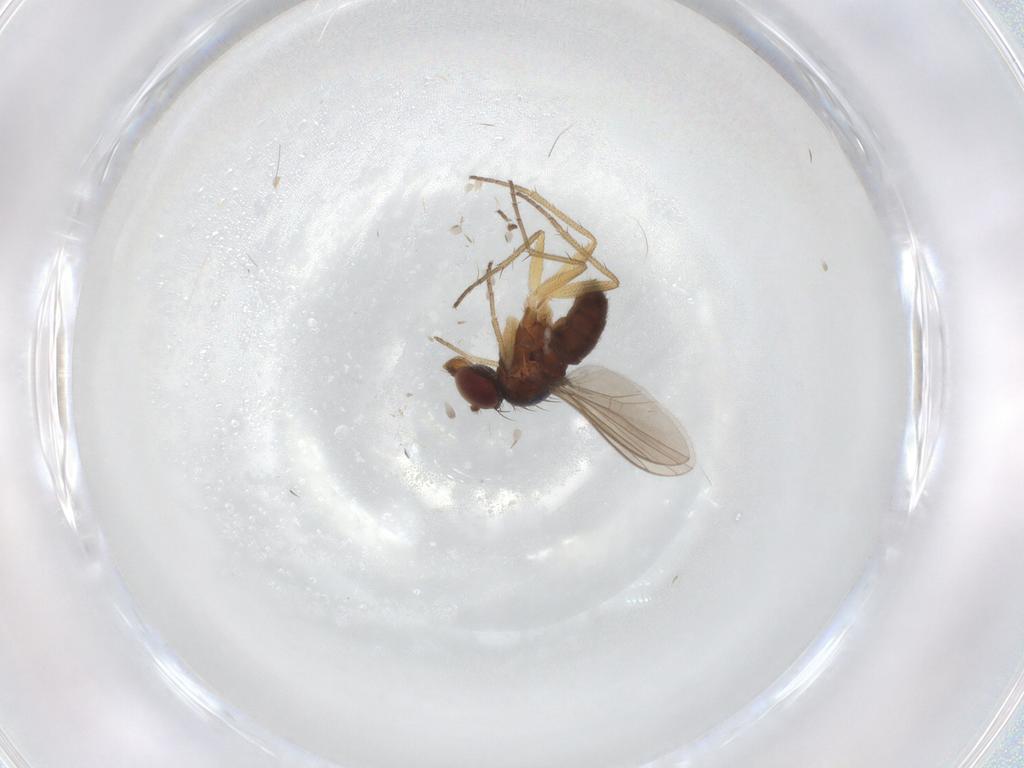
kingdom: Animalia
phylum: Arthropoda
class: Insecta
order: Diptera
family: Dolichopodidae
